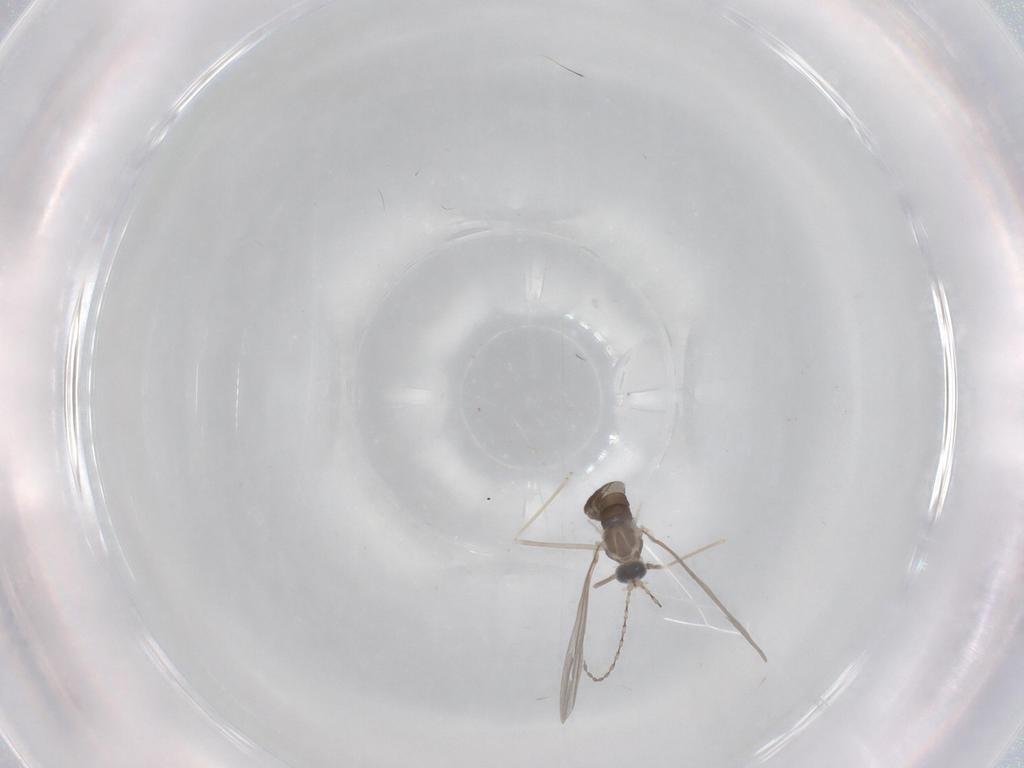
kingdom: Animalia
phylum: Arthropoda
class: Insecta
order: Diptera
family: Cecidomyiidae
